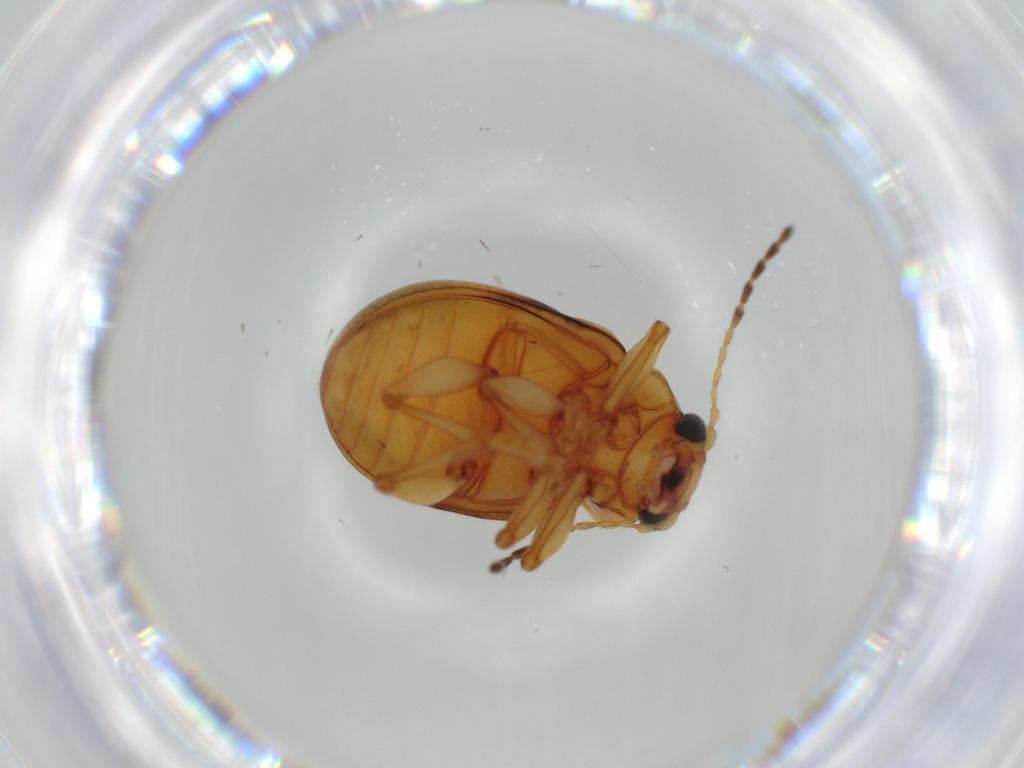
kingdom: Animalia
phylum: Arthropoda
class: Insecta
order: Coleoptera
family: Chrysomelidae
